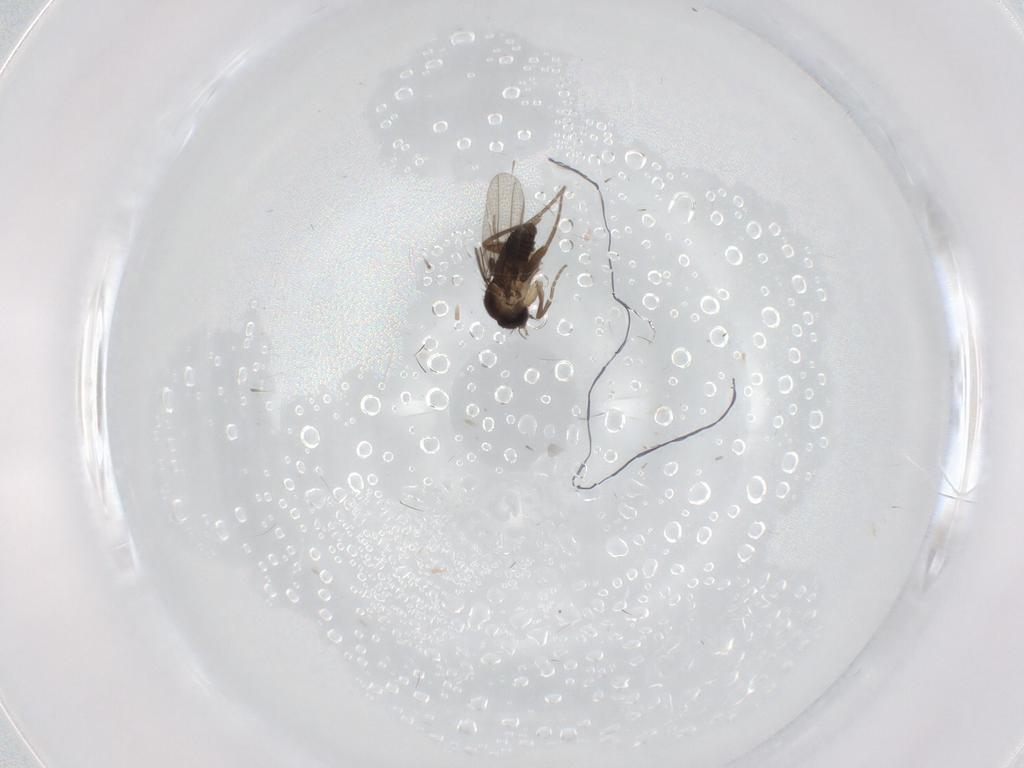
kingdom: Animalia
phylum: Arthropoda
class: Insecta
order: Diptera
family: Phoridae
